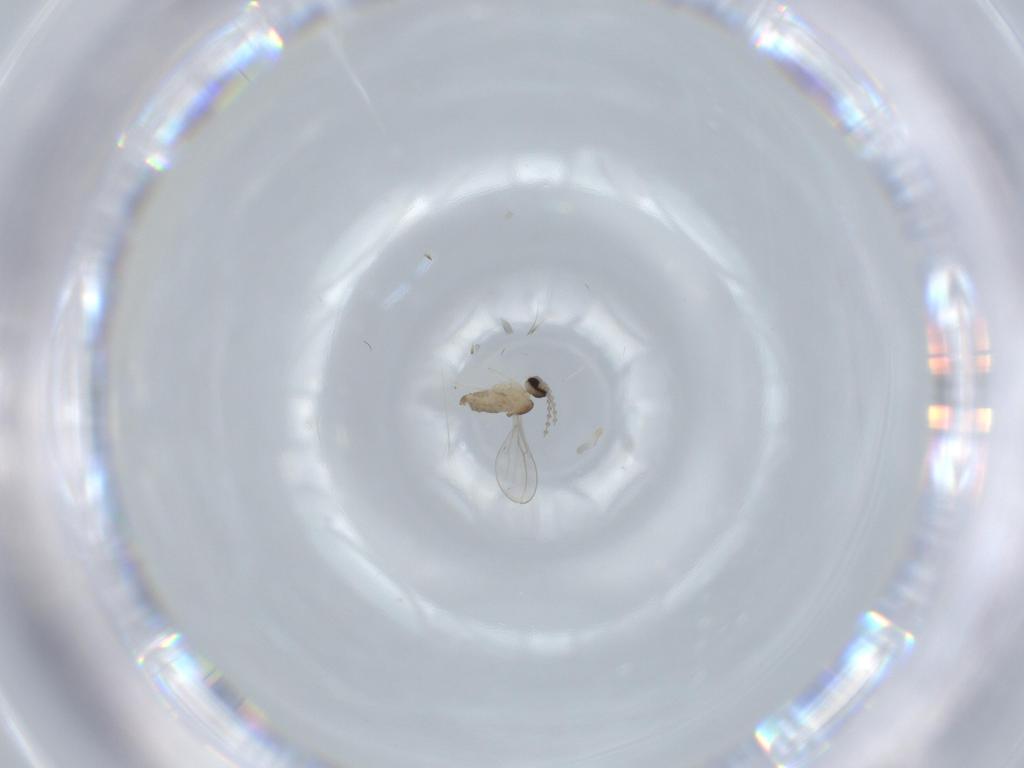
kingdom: Animalia
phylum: Arthropoda
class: Insecta
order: Diptera
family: Cecidomyiidae
